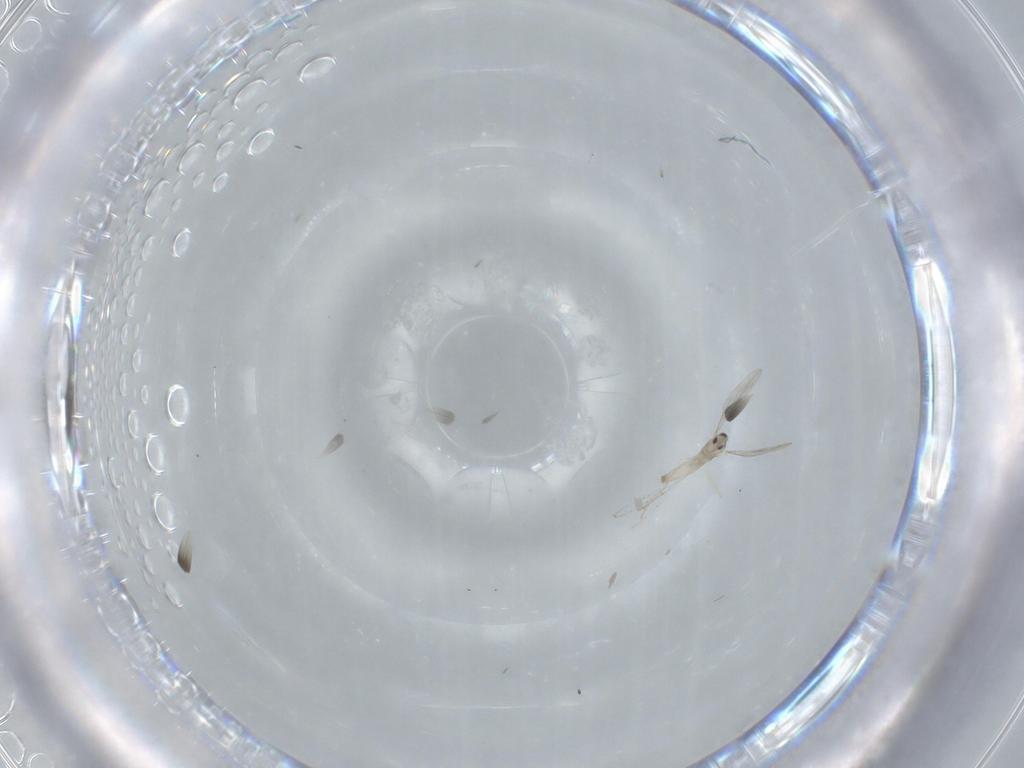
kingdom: Animalia
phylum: Arthropoda
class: Insecta
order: Diptera
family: Cecidomyiidae
